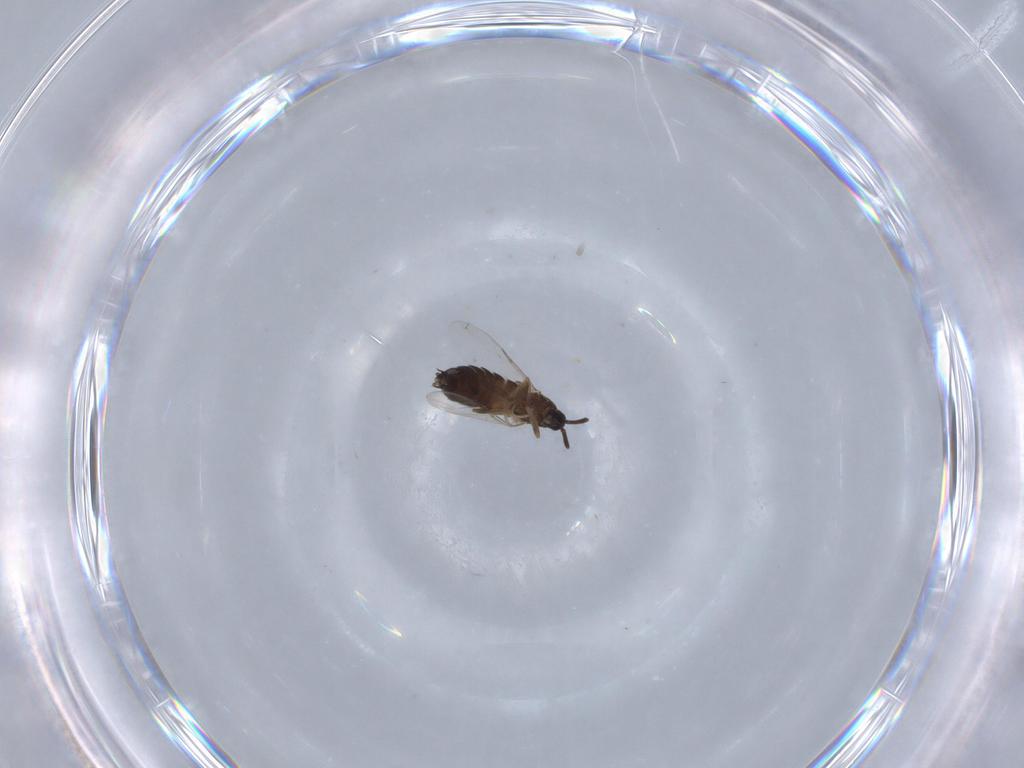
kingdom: Animalia
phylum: Arthropoda
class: Insecta
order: Diptera
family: Scatopsidae
